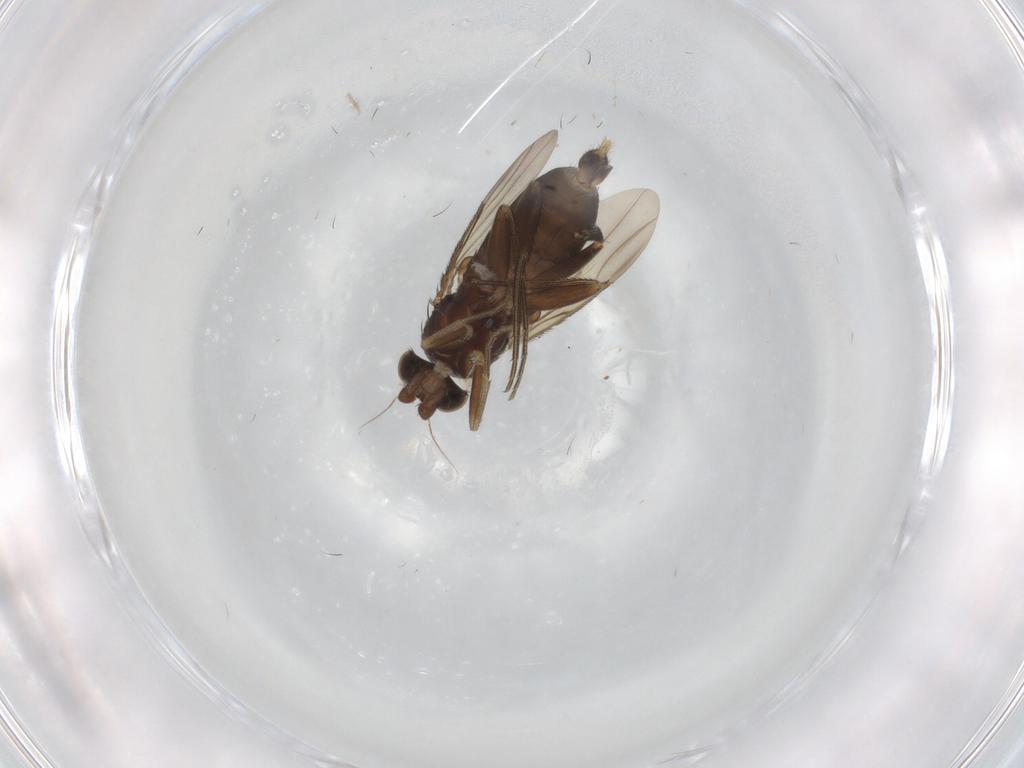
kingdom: Animalia
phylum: Arthropoda
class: Insecta
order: Diptera
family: Phoridae
